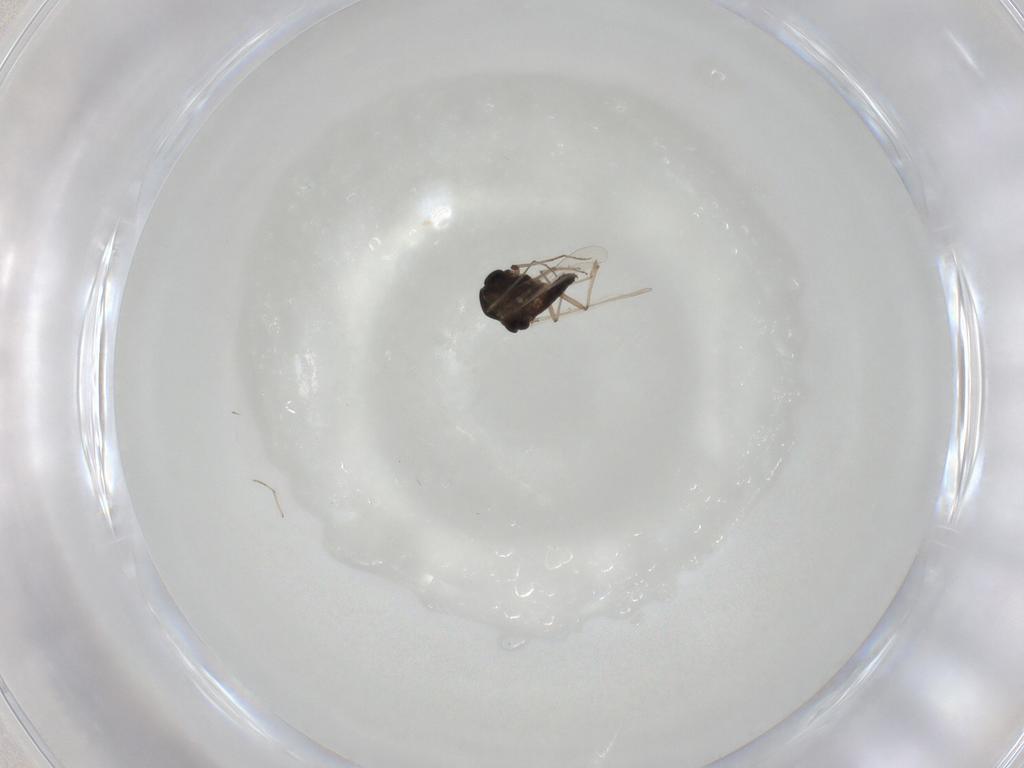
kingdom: Animalia
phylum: Arthropoda
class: Insecta
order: Diptera
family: Chironomidae
